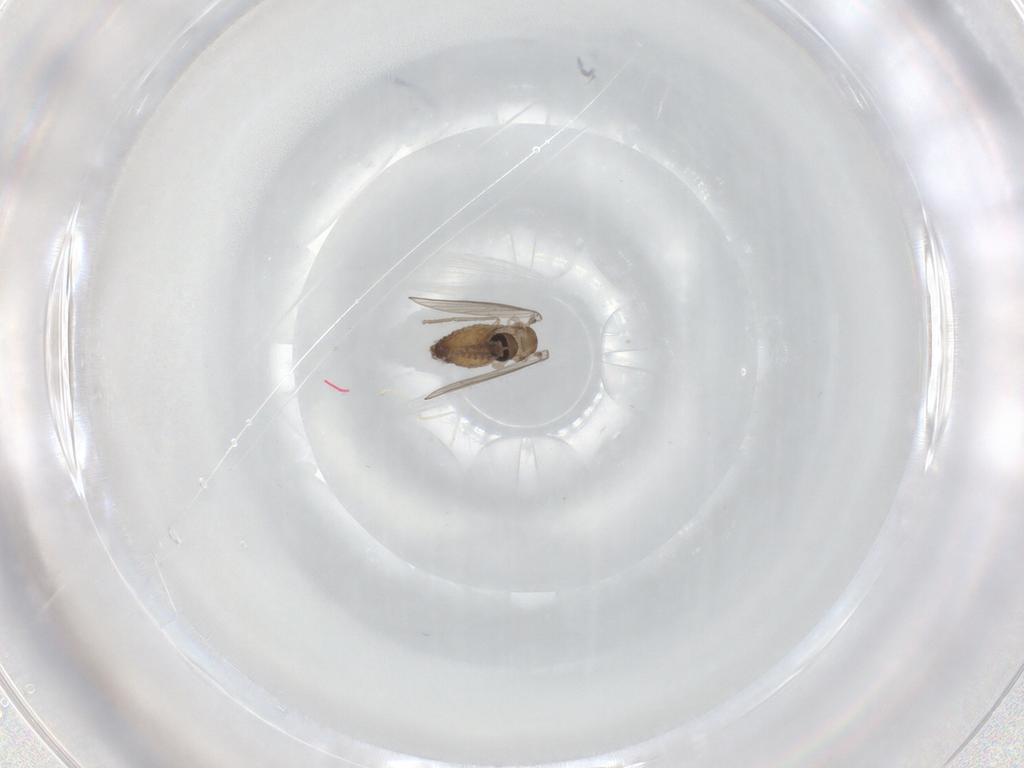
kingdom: Animalia
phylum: Arthropoda
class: Insecta
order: Diptera
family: Psychodidae
